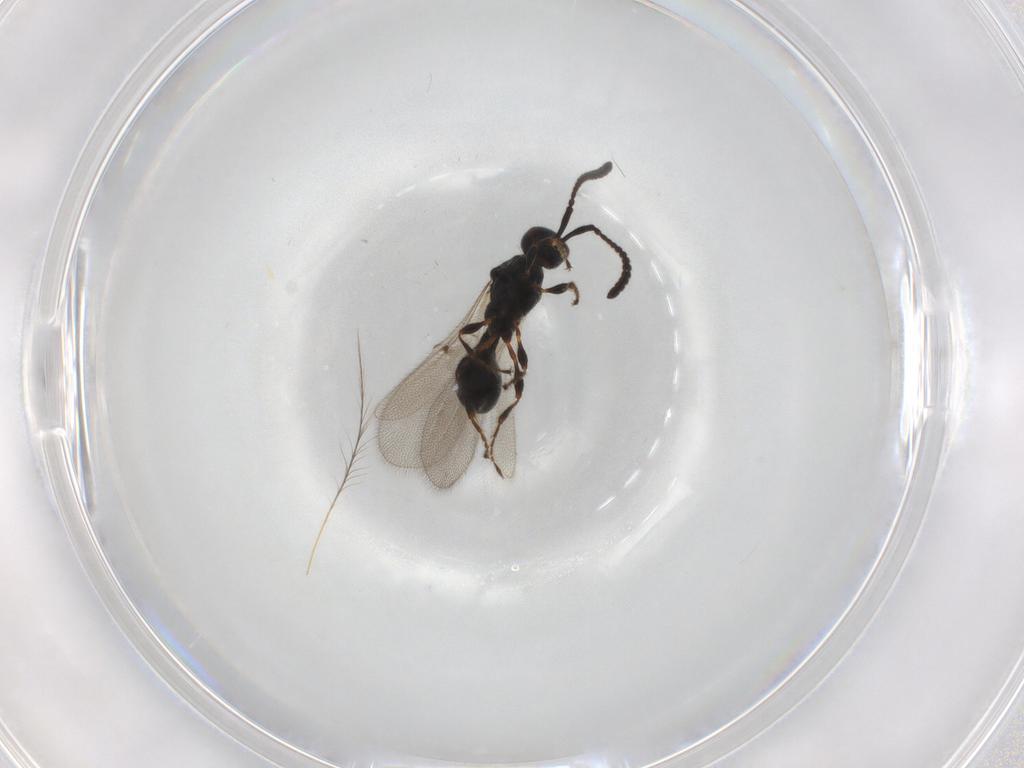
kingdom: Animalia
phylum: Arthropoda
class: Insecta
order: Hymenoptera
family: Diapriidae
